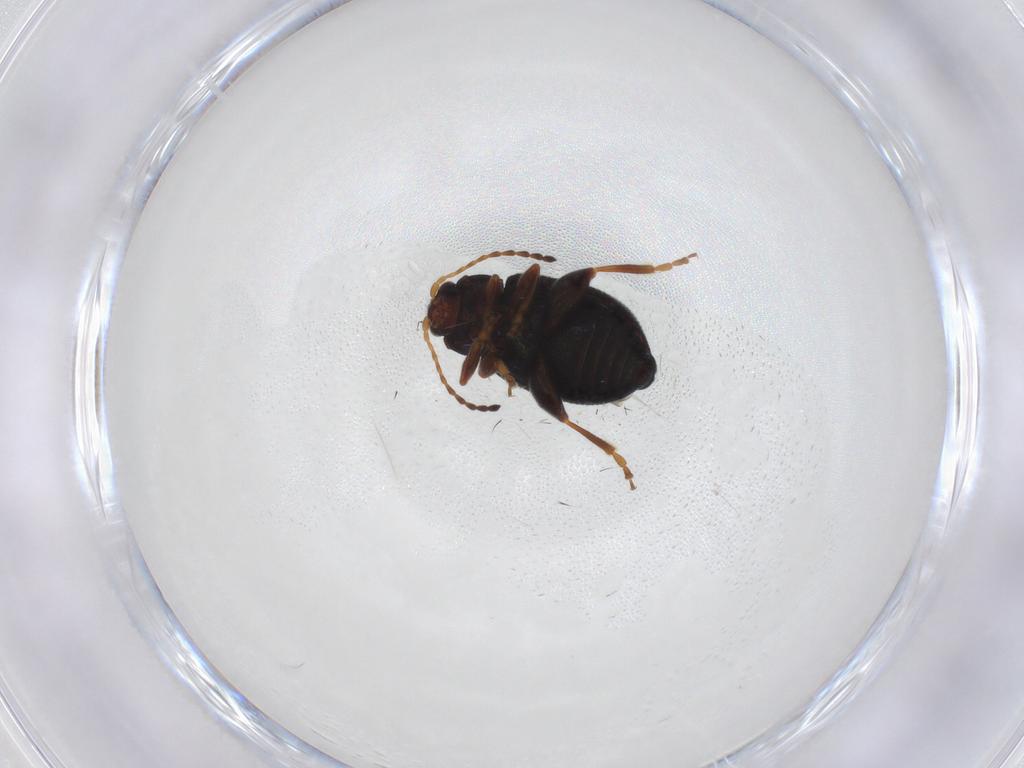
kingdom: Animalia
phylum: Arthropoda
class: Insecta
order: Coleoptera
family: Chrysomelidae
